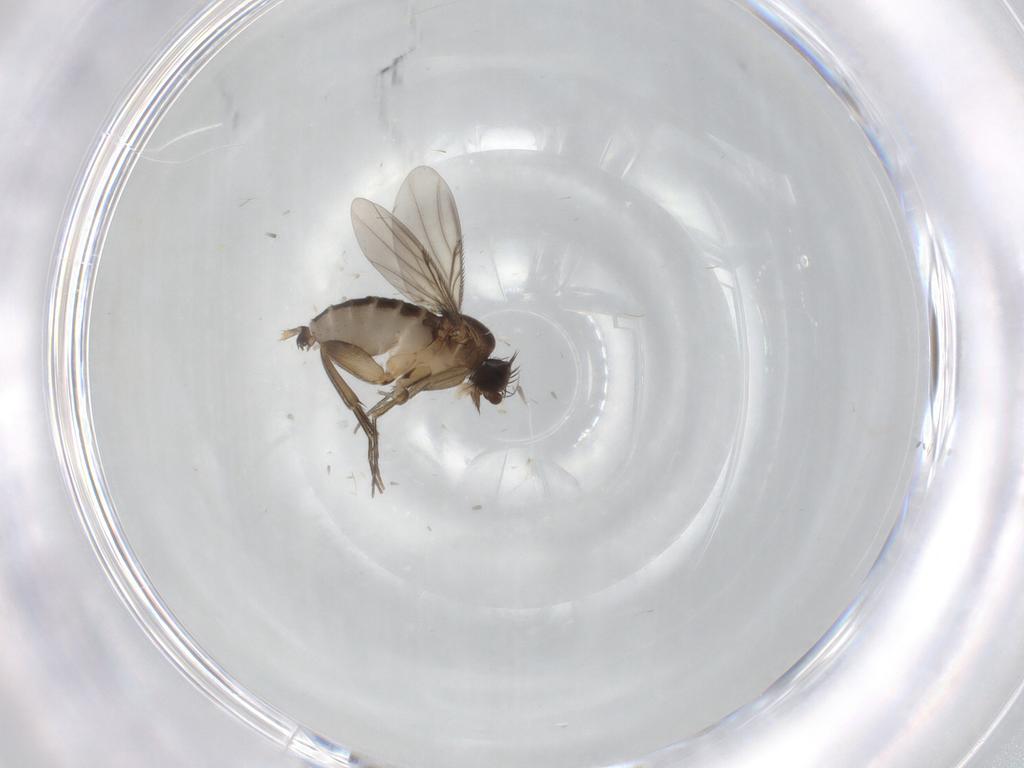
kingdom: Animalia
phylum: Arthropoda
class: Insecta
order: Diptera
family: Phoridae
